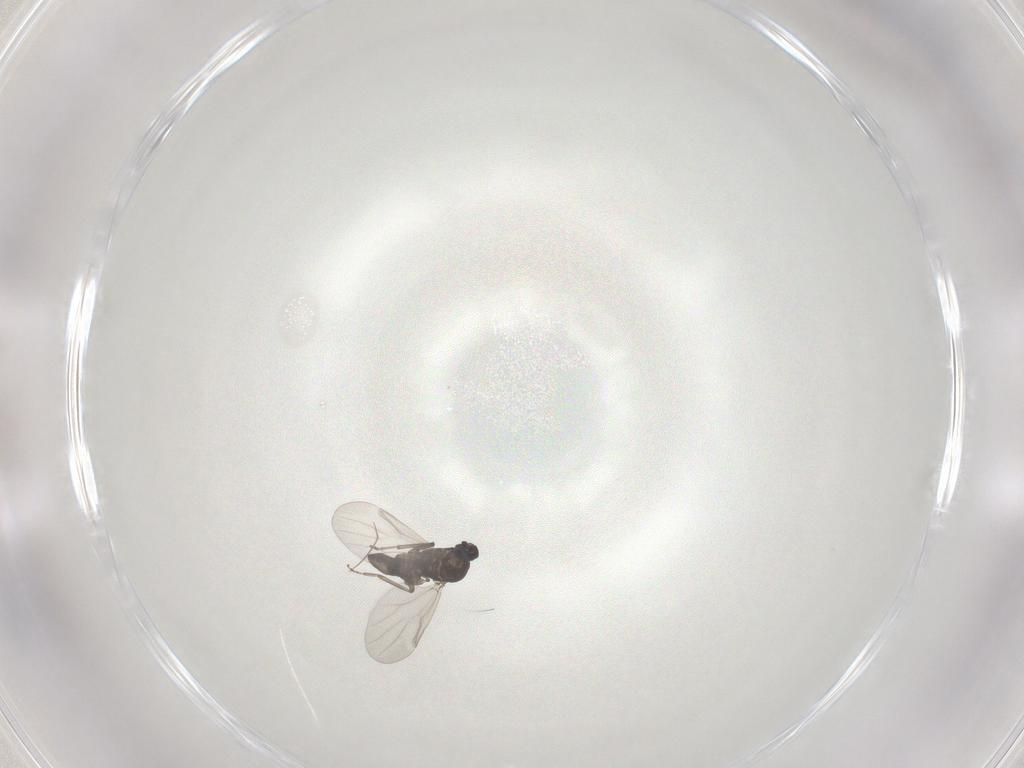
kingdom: Animalia
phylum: Arthropoda
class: Insecta
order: Diptera
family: Ceratopogonidae
